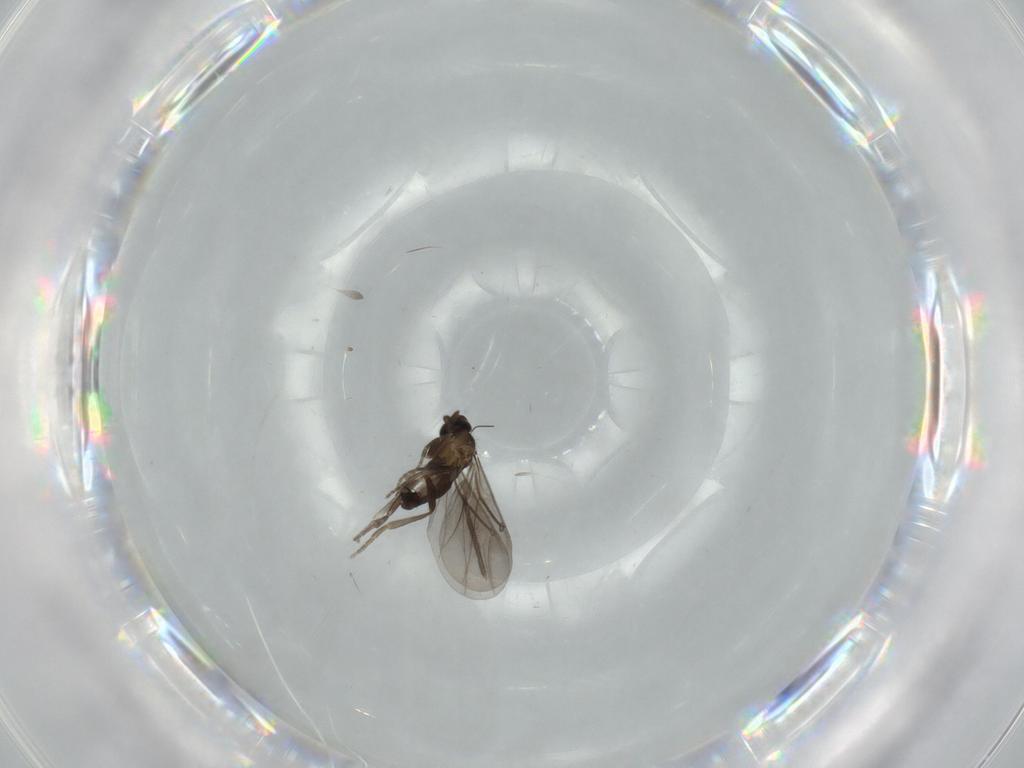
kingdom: Animalia
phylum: Arthropoda
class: Insecta
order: Diptera
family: Phoridae
